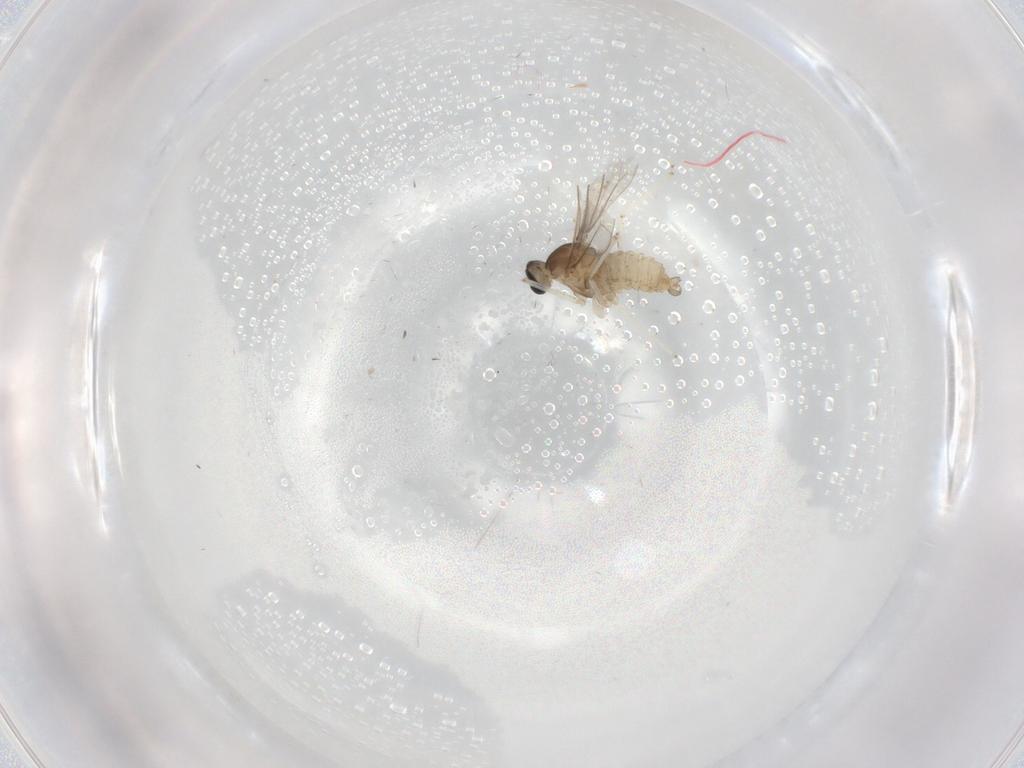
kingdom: Animalia
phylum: Arthropoda
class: Insecta
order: Diptera
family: Cecidomyiidae
